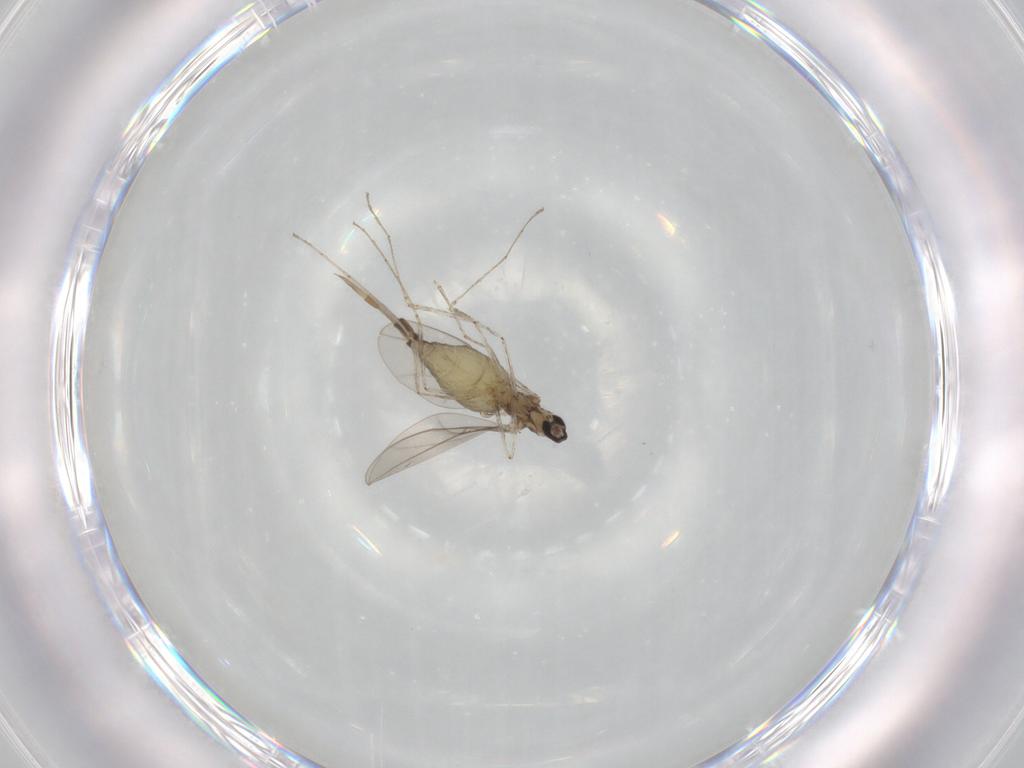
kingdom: Animalia
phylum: Arthropoda
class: Insecta
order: Diptera
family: Cecidomyiidae
